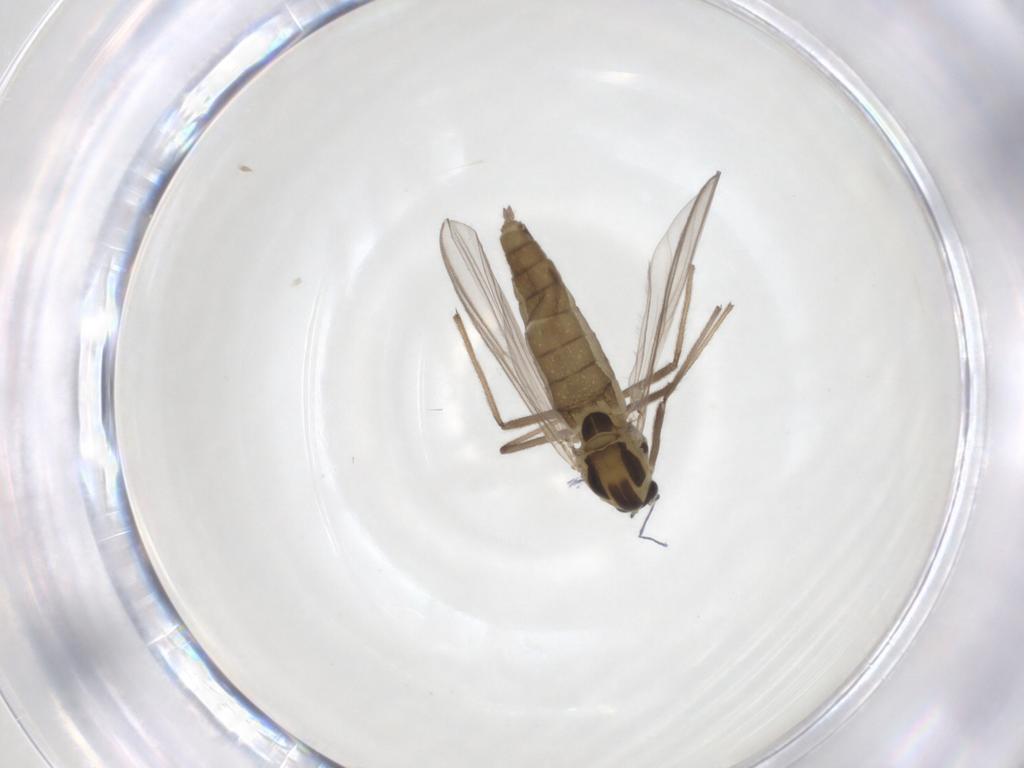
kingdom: Animalia
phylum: Arthropoda
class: Insecta
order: Diptera
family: Chironomidae
